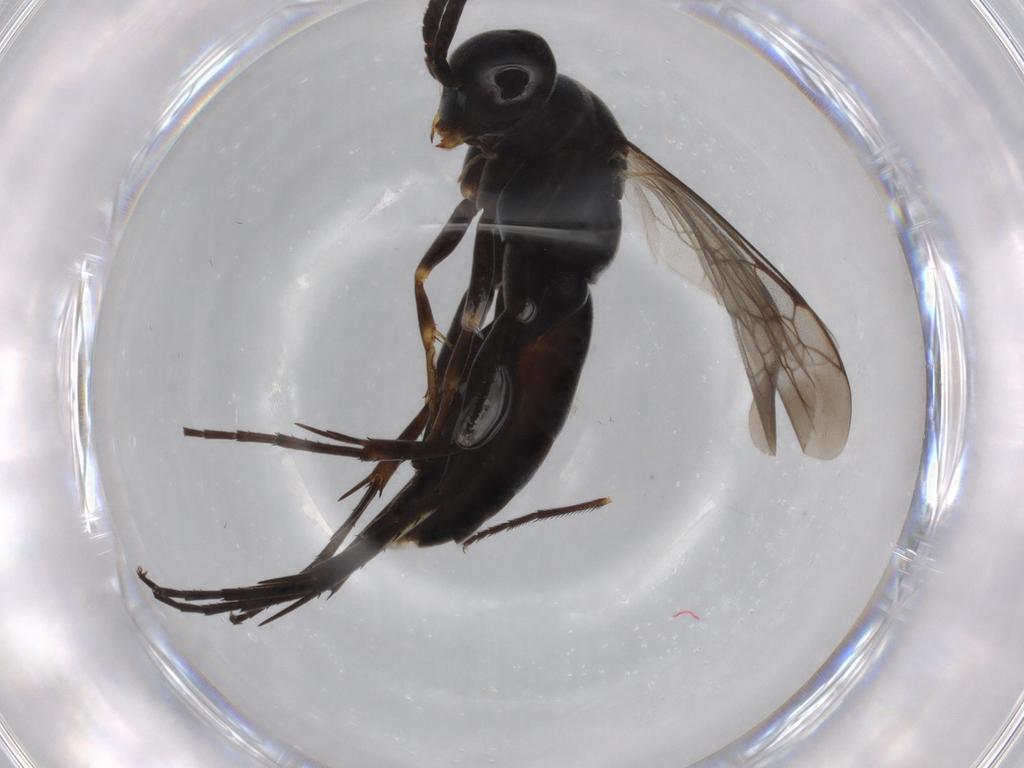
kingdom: Animalia
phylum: Arthropoda
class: Insecta
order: Hymenoptera
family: Pompilidae
